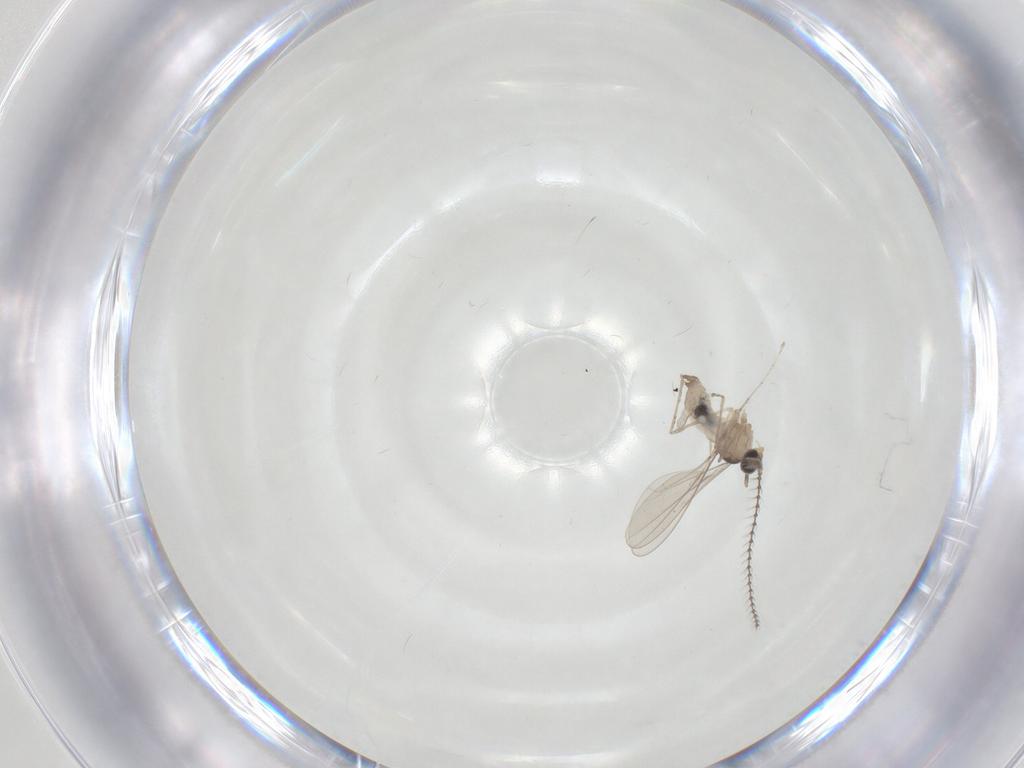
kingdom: Animalia
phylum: Arthropoda
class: Insecta
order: Diptera
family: Cecidomyiidae
